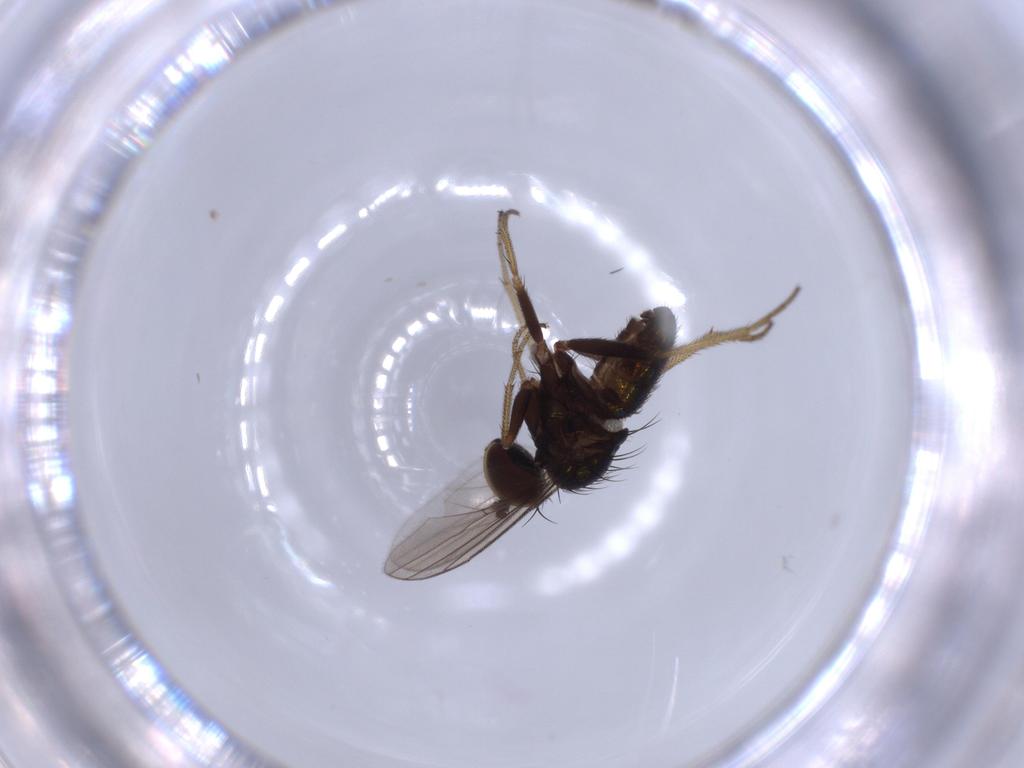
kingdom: Animalia
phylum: Arthropoda
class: Insecta
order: Diptera
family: Dolichopodidae
